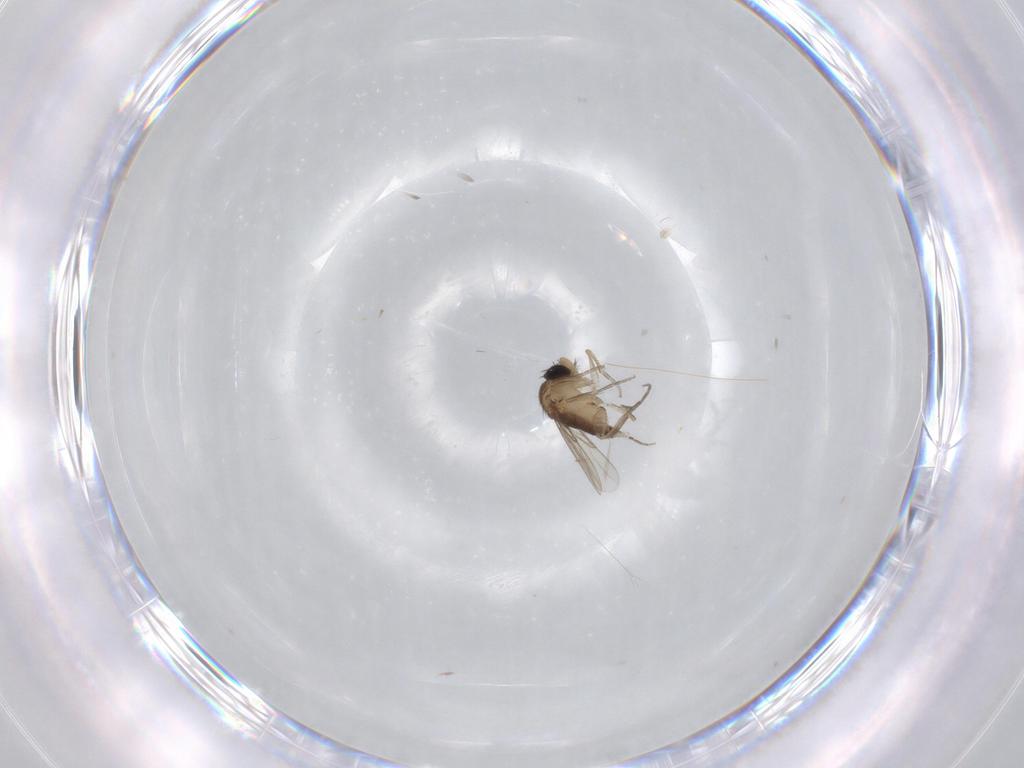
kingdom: Animalia
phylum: Arthropoda
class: Insecta
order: Diptera
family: Phoridae
